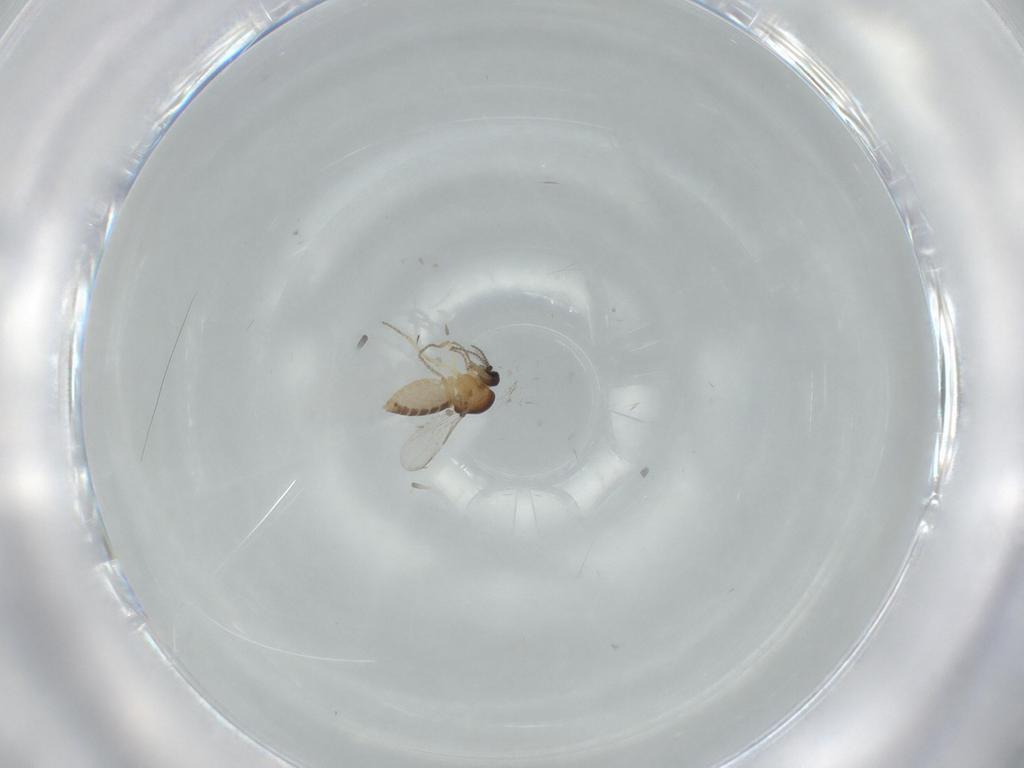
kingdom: Animalia
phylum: Arthropoda
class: Insecta
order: Diptera
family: Ceratopogonidae
